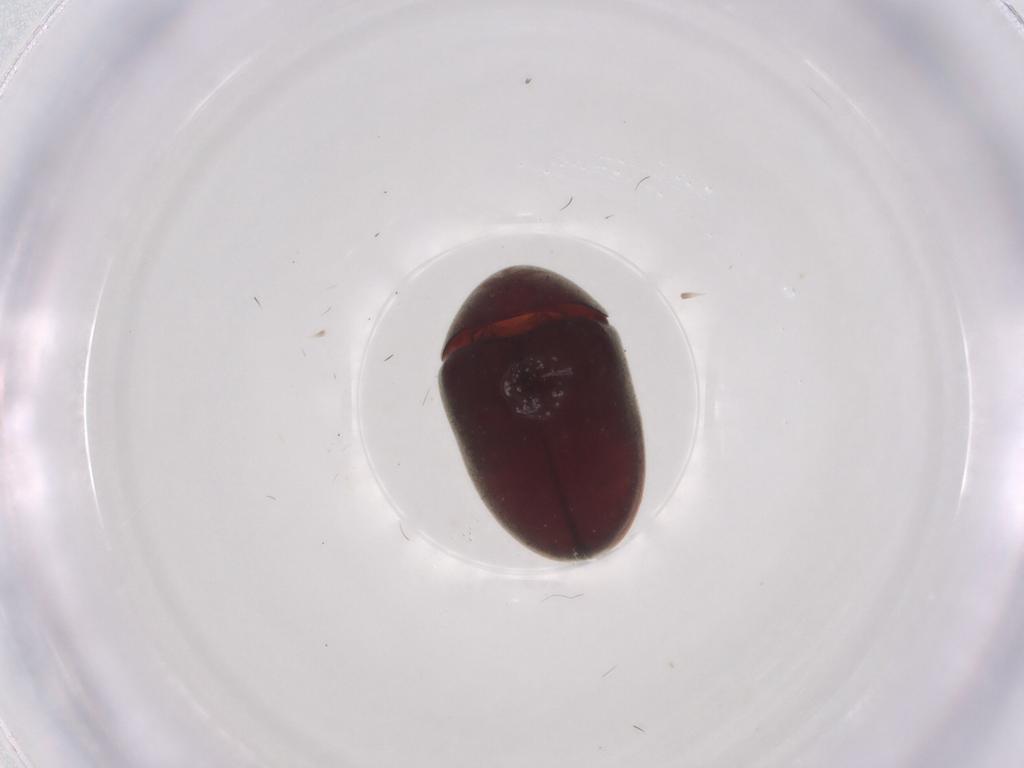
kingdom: Animalia
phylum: Arthropoda
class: Insecta
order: Coleoptera
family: Ptinidae
